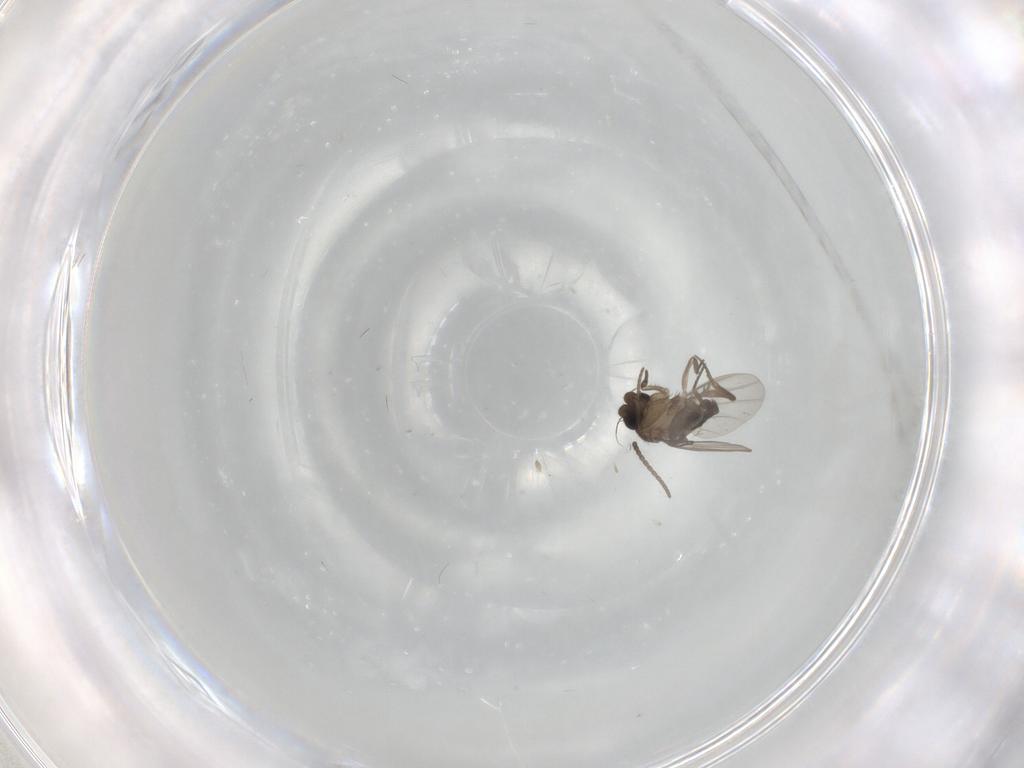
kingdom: Animalia
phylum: Arthropoda
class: Insecta
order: Diptera
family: Cecidomyiidae
